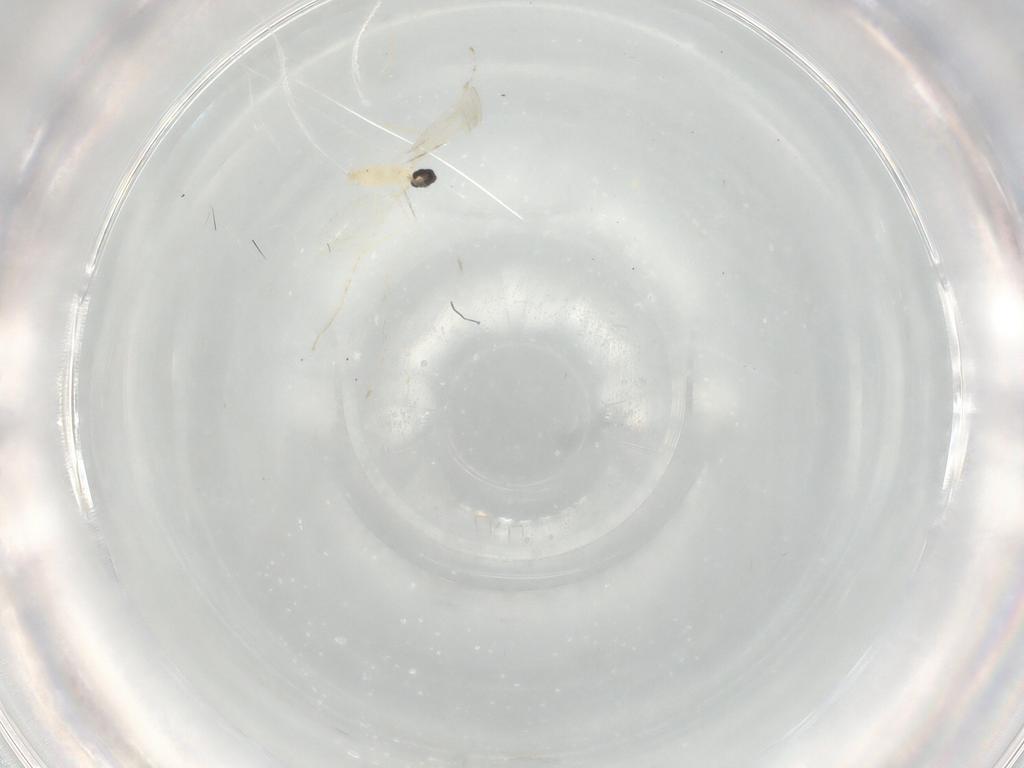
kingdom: Animalia
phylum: Arthropoda
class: Insecta
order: Diptera
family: Cecidomyiidae
